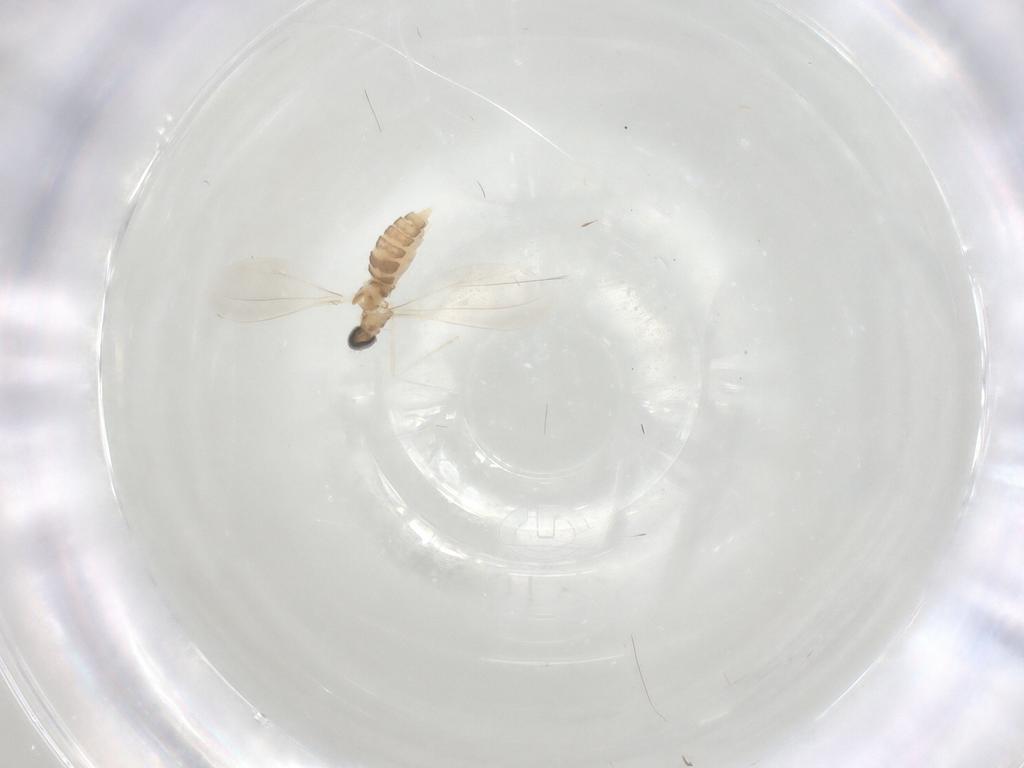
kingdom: Animalia
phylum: Arthropoda
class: Insecta
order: Diptera
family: Cecidomyiidae
